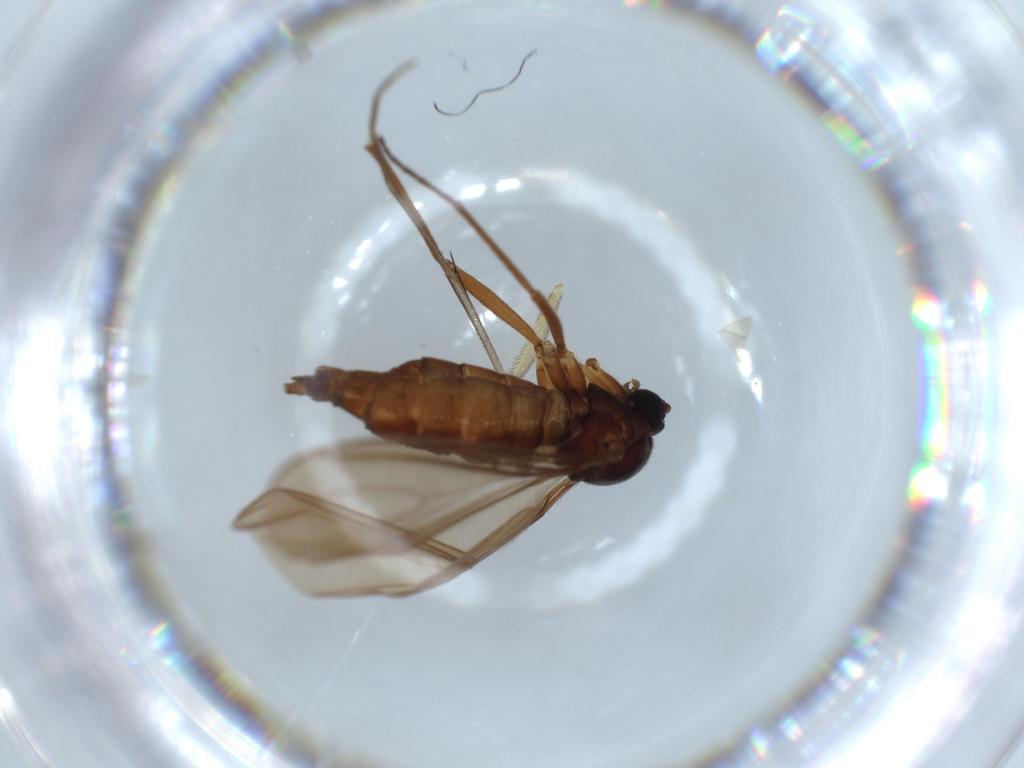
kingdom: Animalia
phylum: Arthropoda
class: Insecta
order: Diptera
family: Sciaridae
